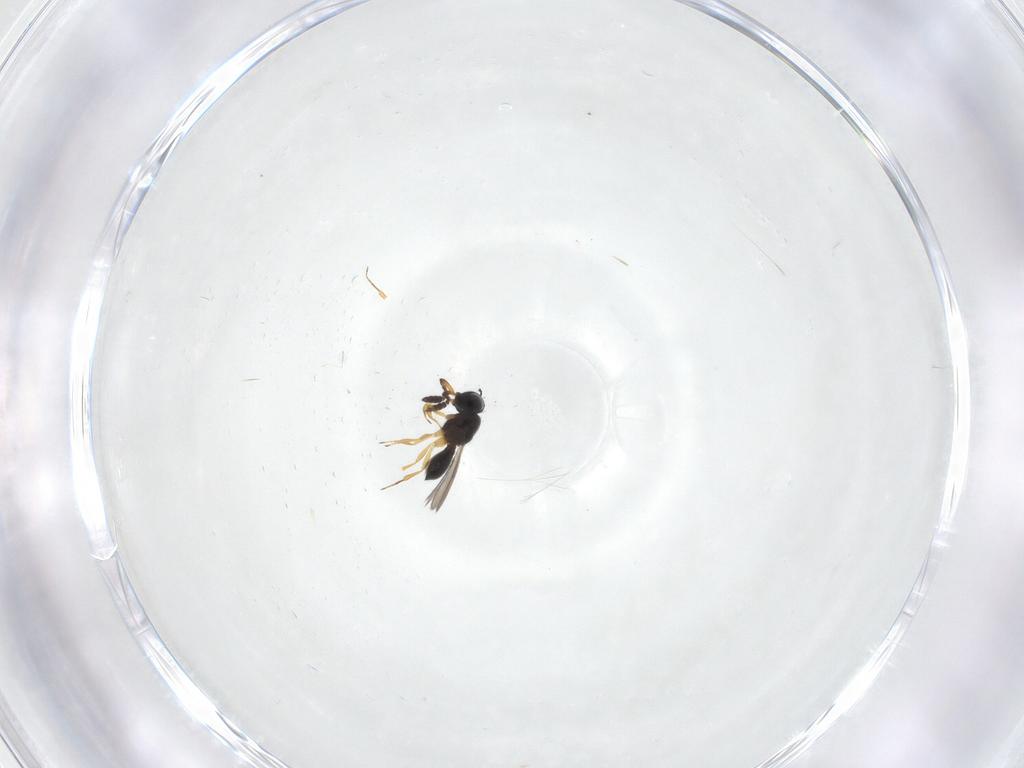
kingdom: Animalia
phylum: Arthropoda
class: Insecta
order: Hymenoptera
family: Scelionidae
